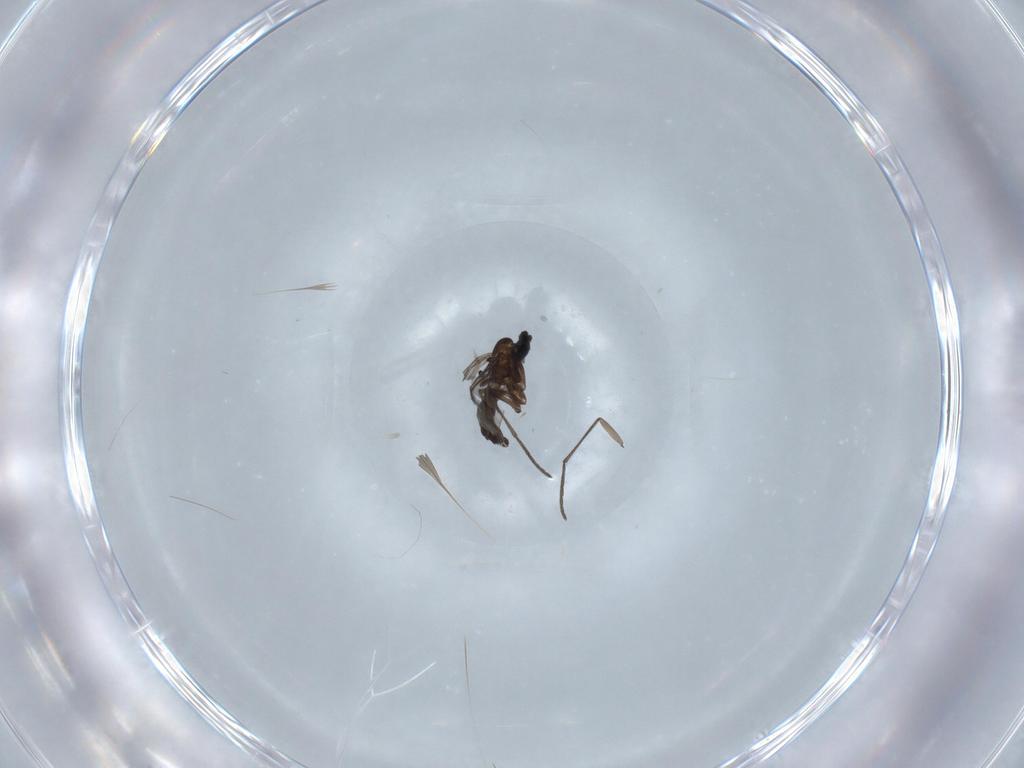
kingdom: Animalia
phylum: Arthropoda
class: Insecta
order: Diptera
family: Sciaridae
